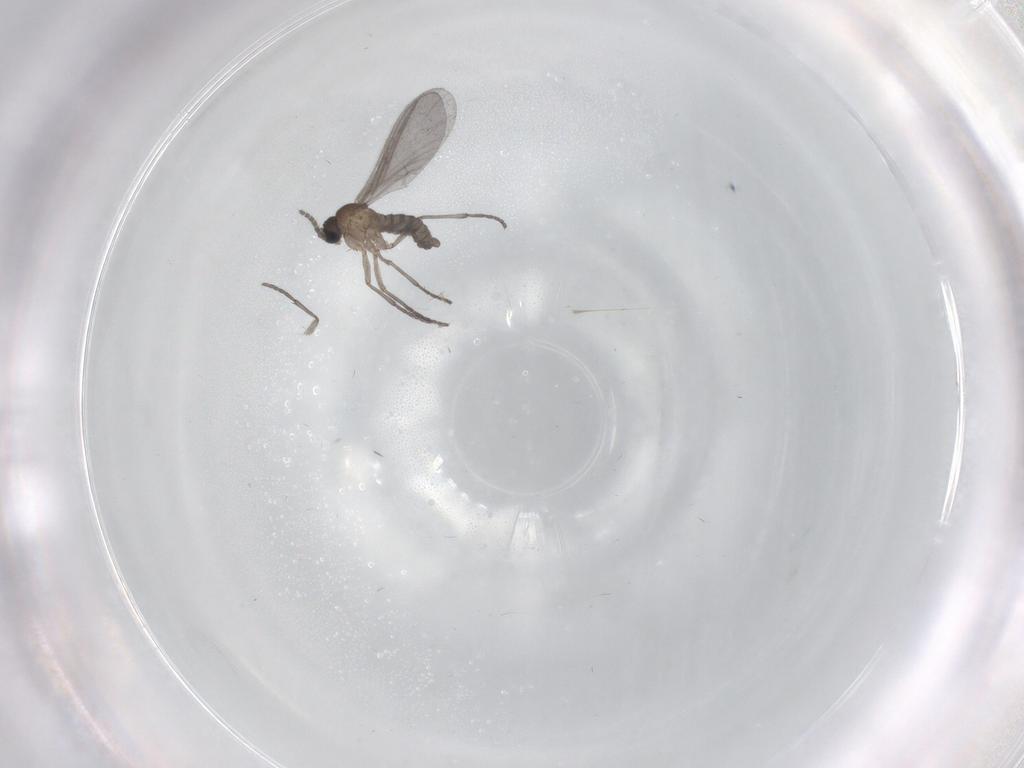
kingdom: Animalia
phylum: Arthropoda
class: Insecta
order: Diptera
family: Sciaridae
